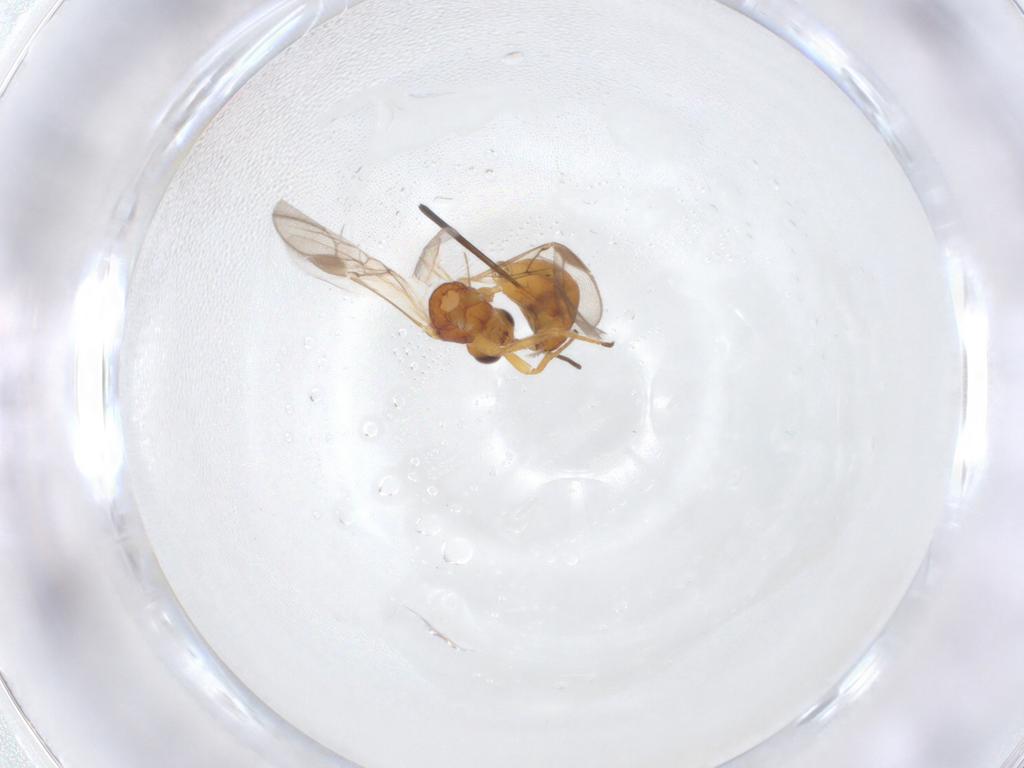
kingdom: Animalia
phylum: Arthropoda
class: Insecta
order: Hymenoptera
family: Braconidae
